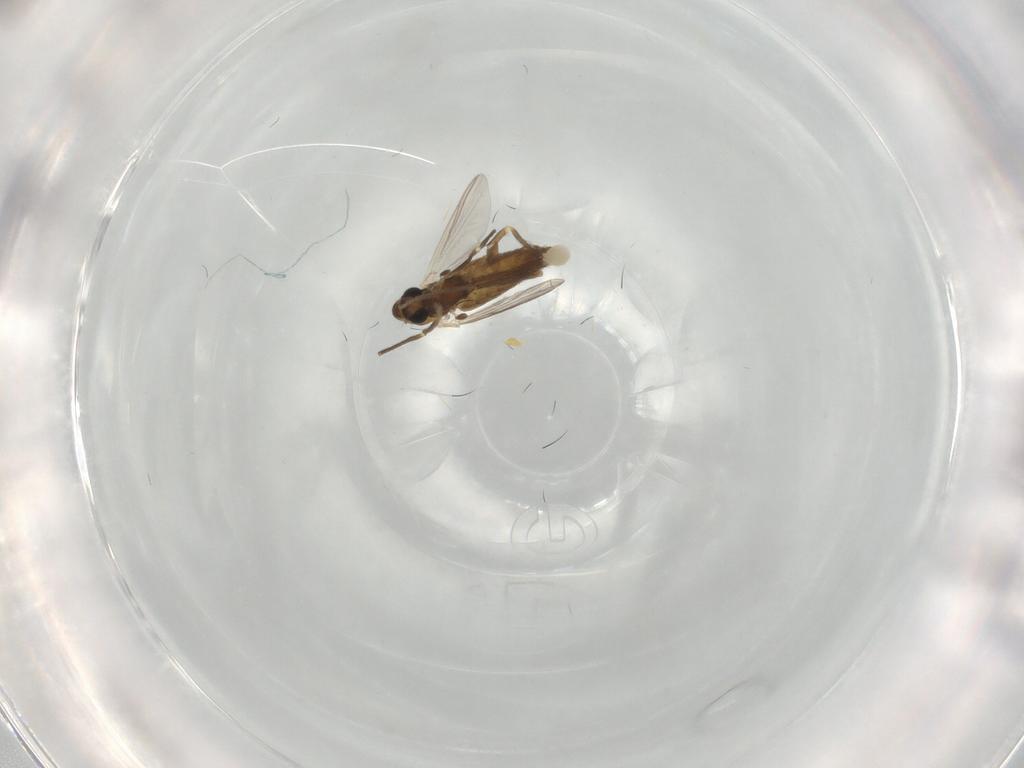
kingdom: Animalia
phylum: Arthropoda
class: Insecta
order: Diptera
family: Chironomidae
